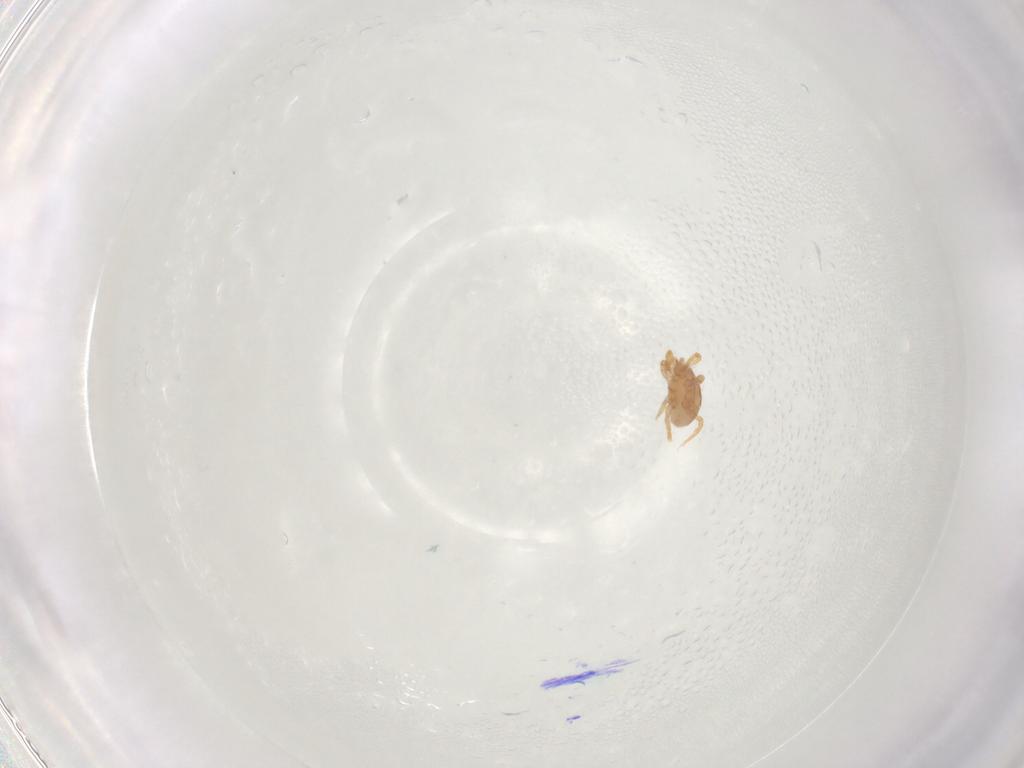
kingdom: Animalia
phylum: Arthropoda
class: Arachnida
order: Mesostigmata
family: Parasitidae
